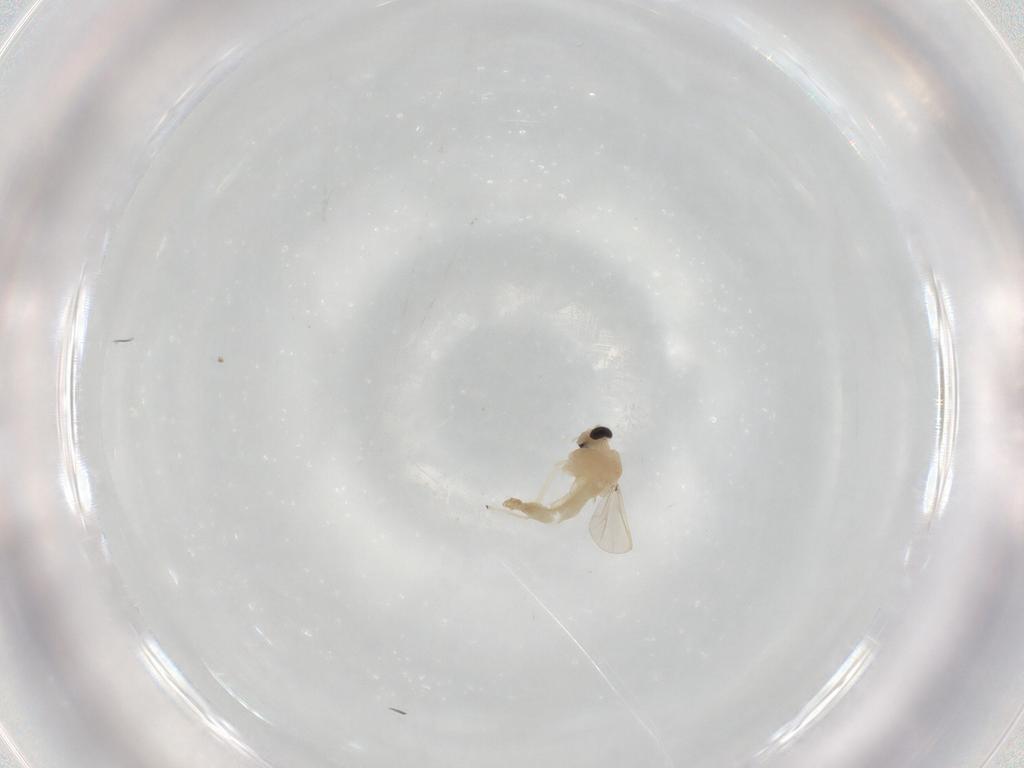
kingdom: Animalia
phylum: Arthropoda
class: Insecta
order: Diptera
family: Chironomidae
